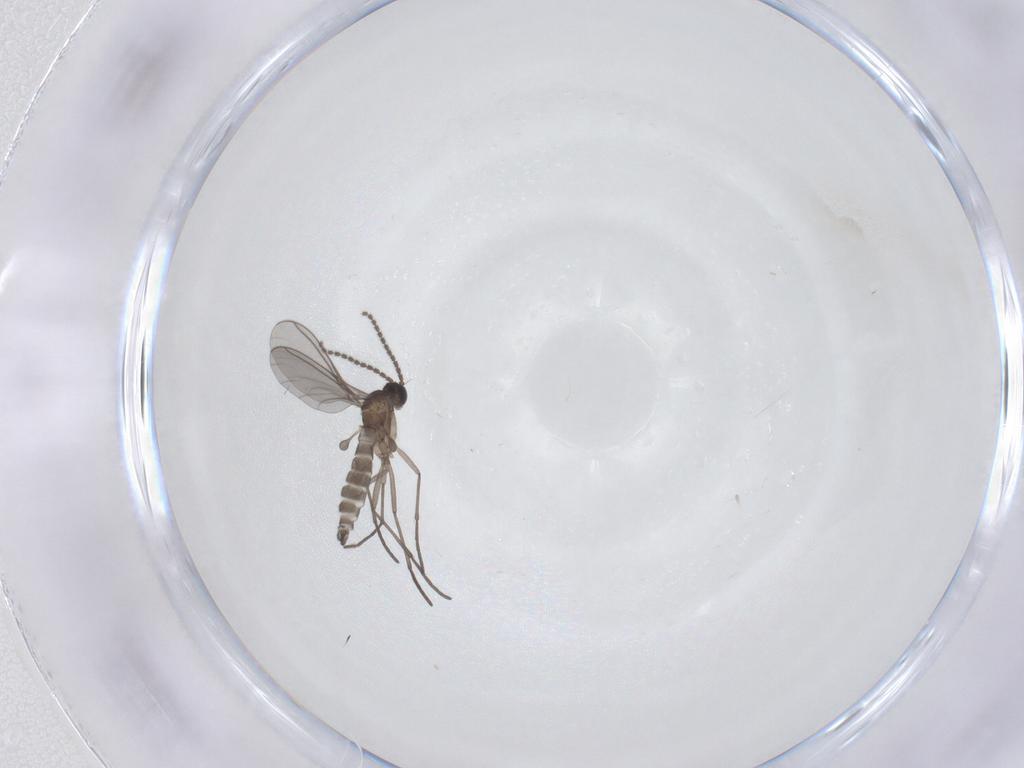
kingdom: Animalia
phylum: Arthropoda
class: Insecta
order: Diptera
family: Sciaridae
